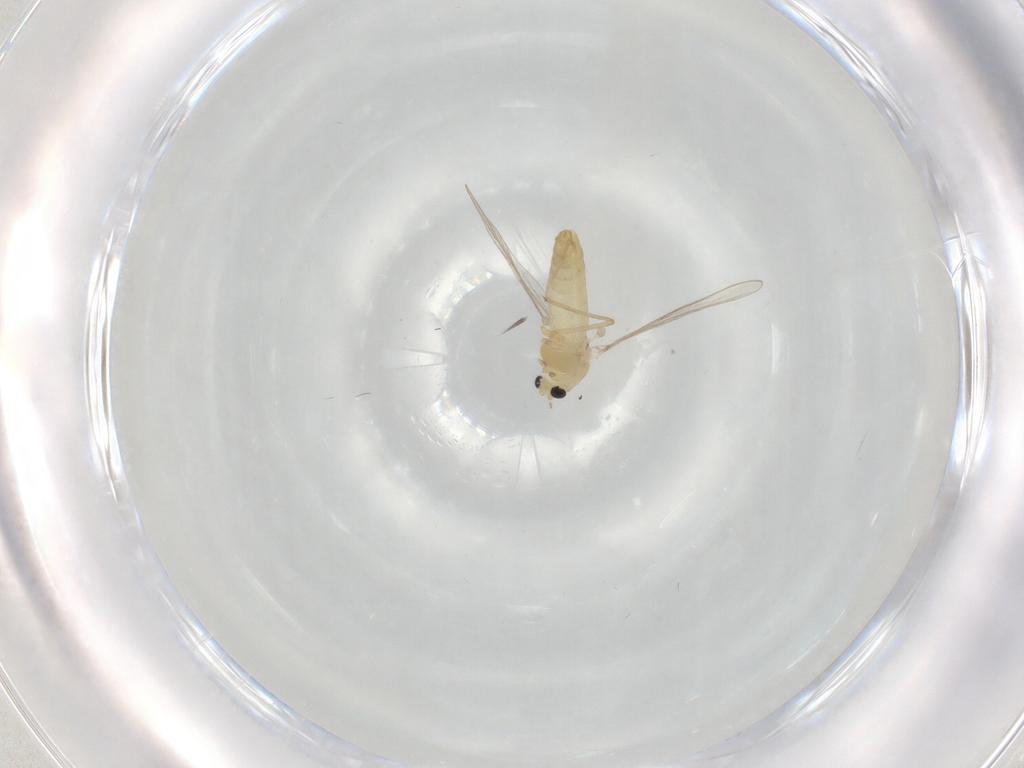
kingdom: Animalia
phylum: Arthropoda
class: Insecta
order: Diptera
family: Chironomidae
